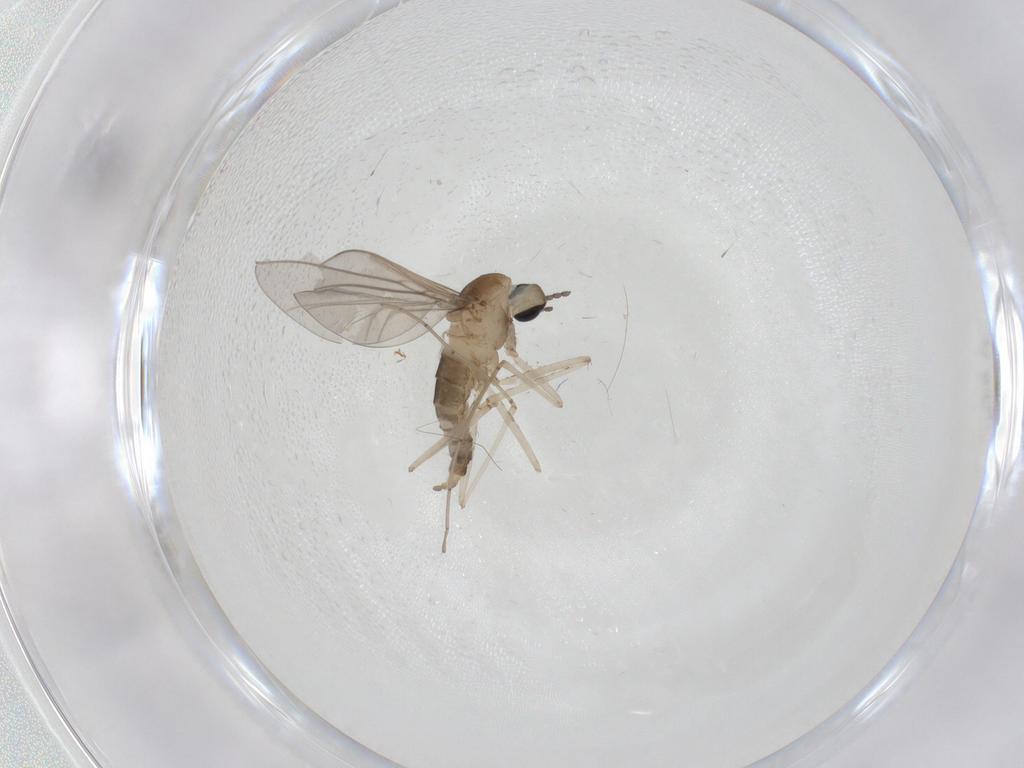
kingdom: Animalia
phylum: Arthropoda
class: Insecta
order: Diptera
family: Cecidomyiidae
